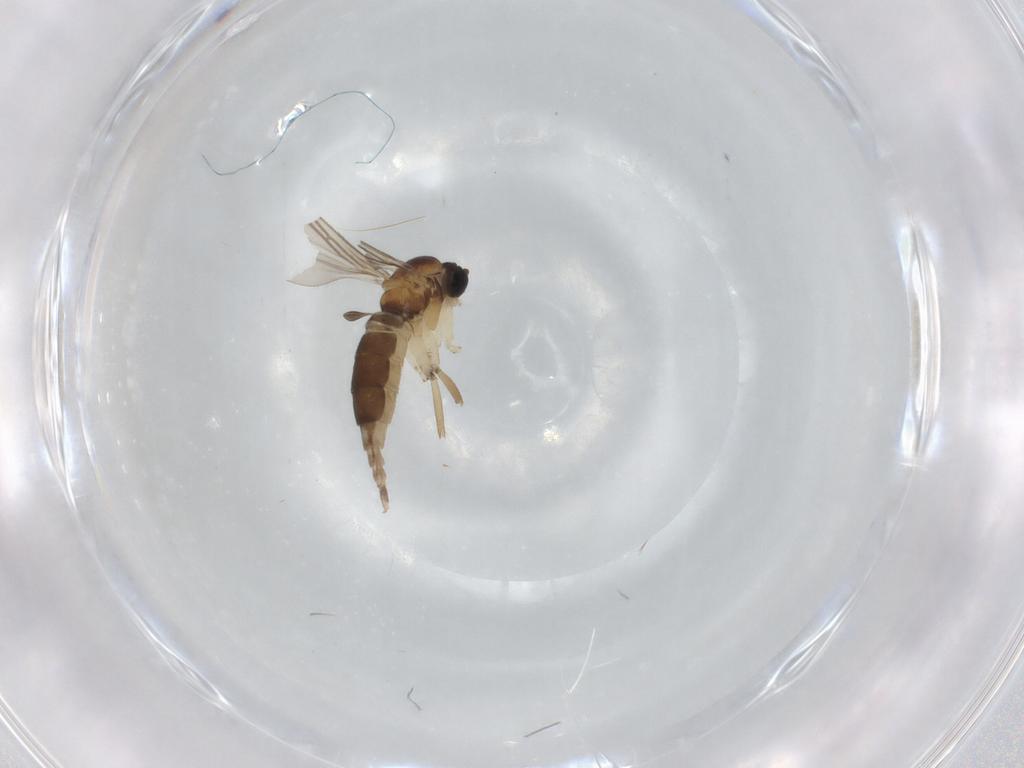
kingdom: Animalia
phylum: Arthropoda
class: Insecta
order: Diptera
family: Sciaridae
